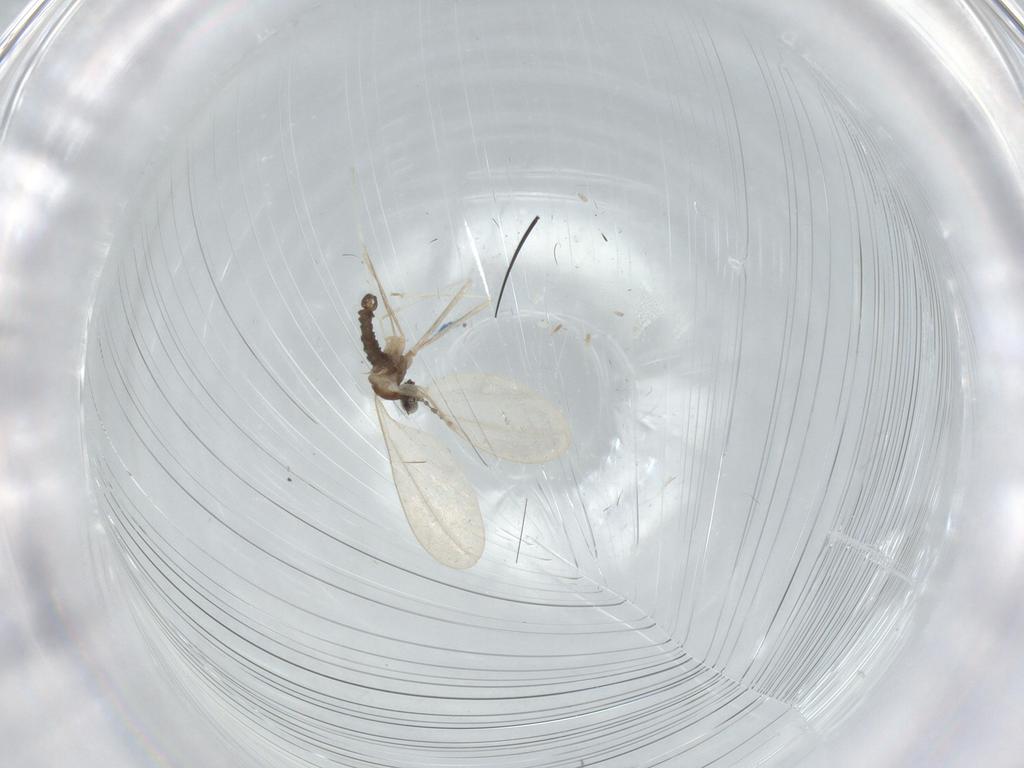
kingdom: Animalia
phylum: Arthropoda
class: Insecta
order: Diptera
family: Cecidomyiidae
